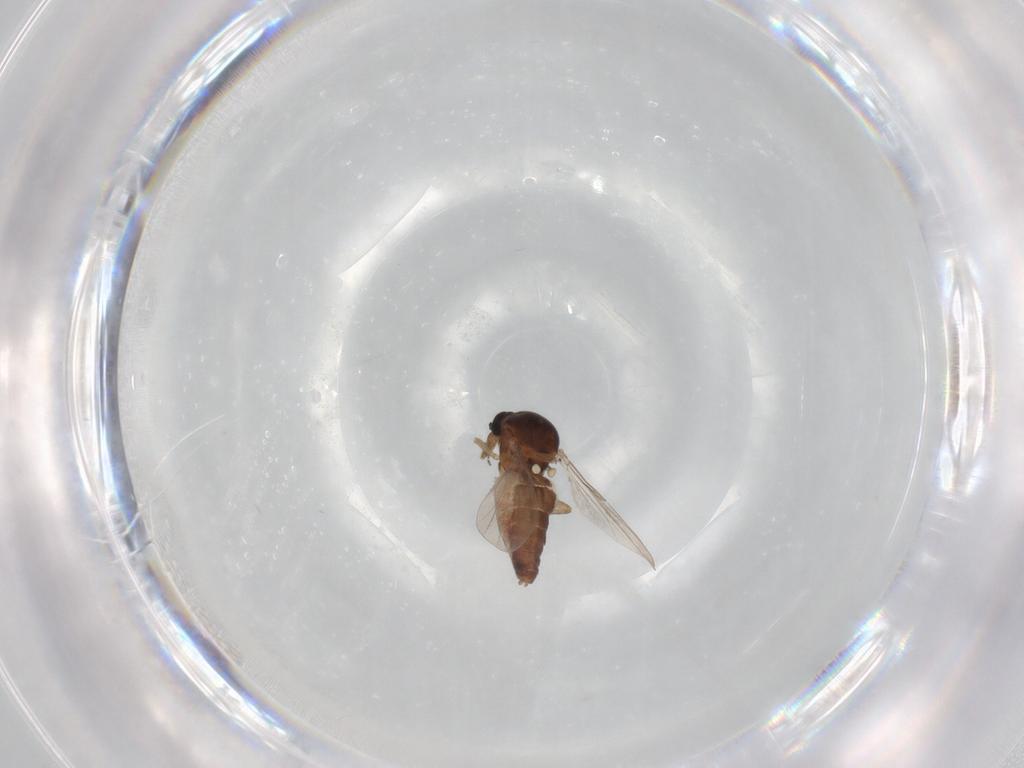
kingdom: Animalia
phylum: Arthropoda
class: Insecta
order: Diptera
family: Ceratopogonidae
